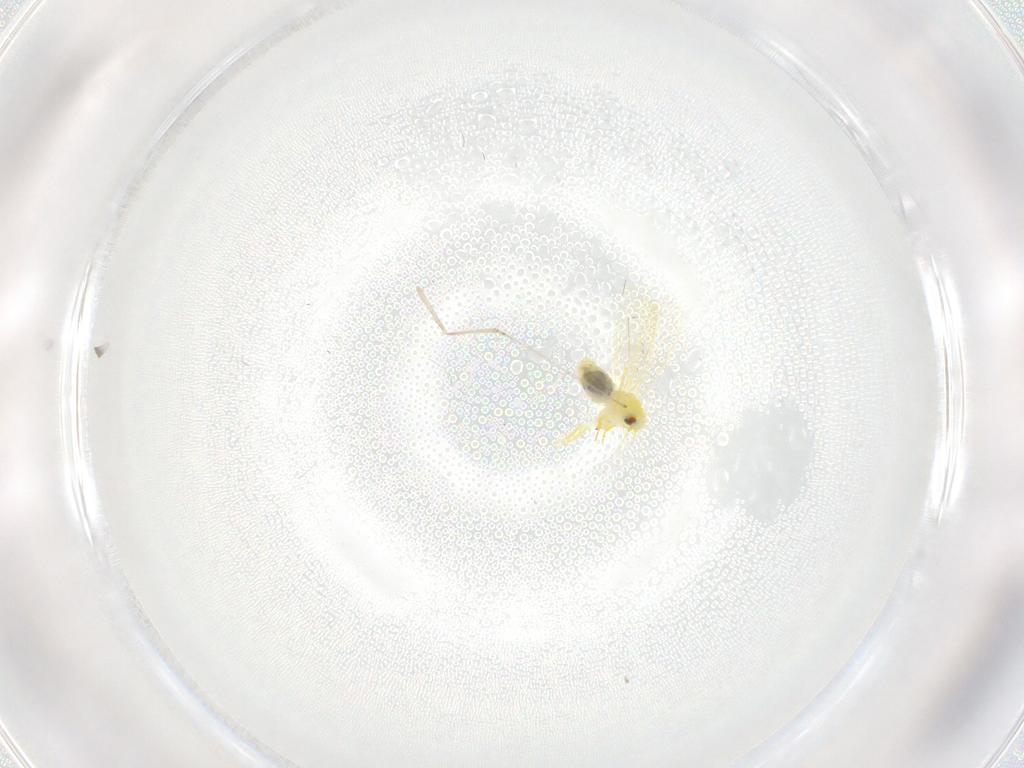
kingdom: Animalia
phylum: Arthropoda
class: Insecta
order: Hemiptera
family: Aleyrodidae
